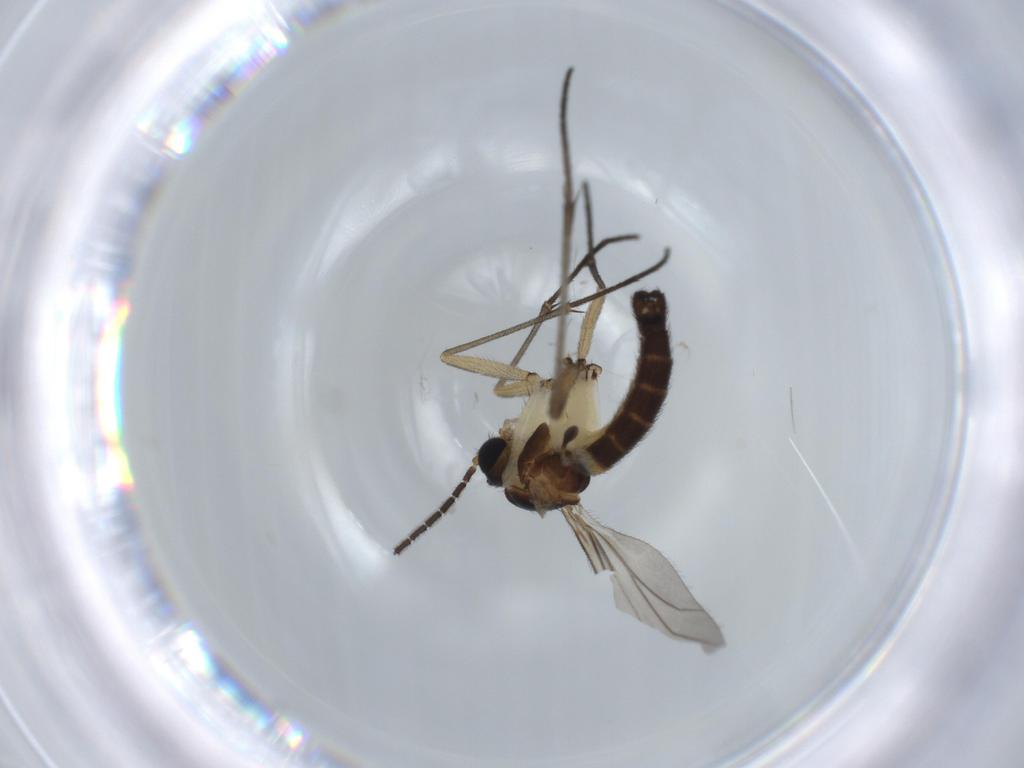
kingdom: Animalia
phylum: Arthropoda
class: Insecta
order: Diptera
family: Sciaridae
